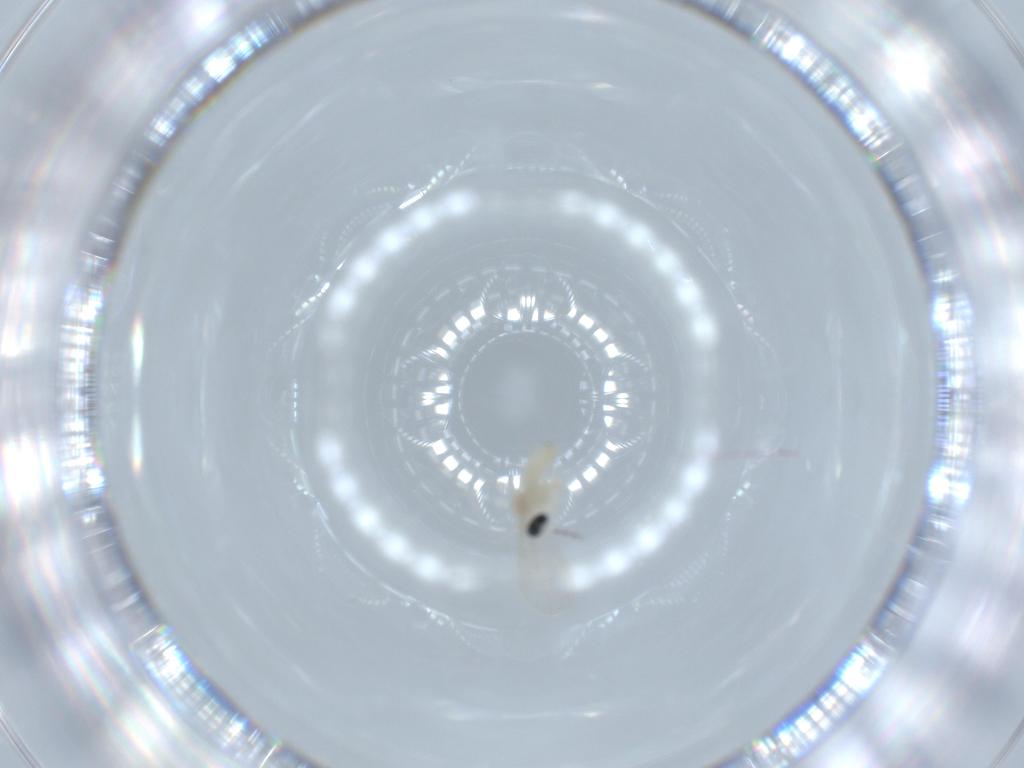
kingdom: Animalia
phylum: Arthropoda
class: Insecta
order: Diptera
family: Cecidomyiidae
